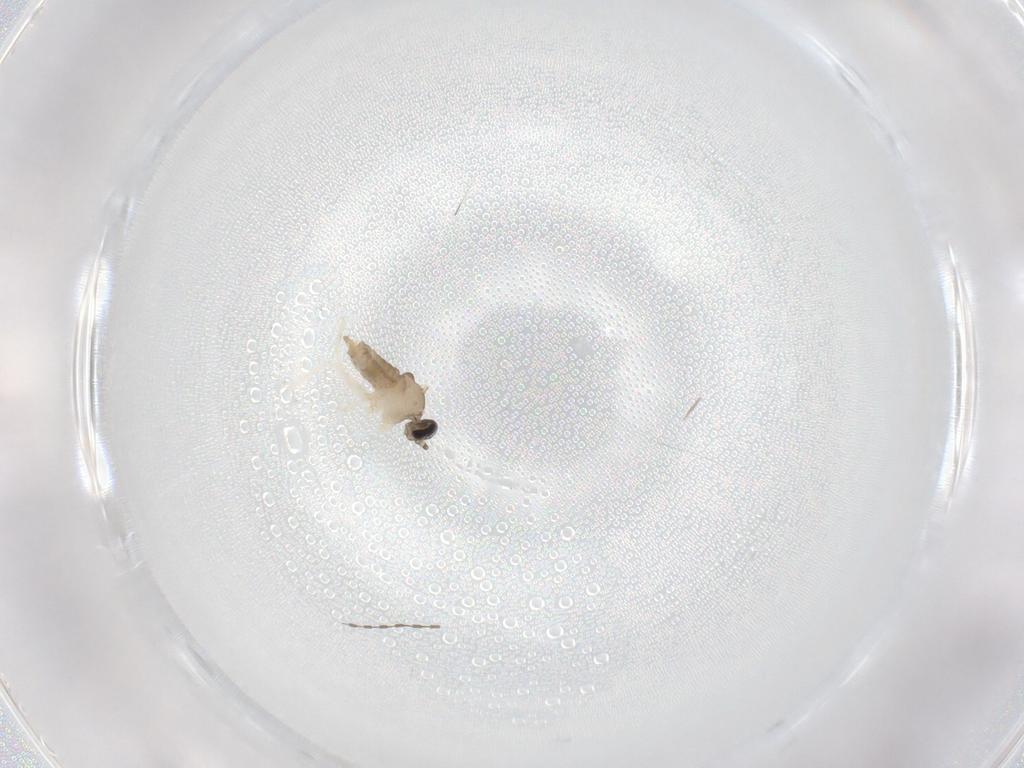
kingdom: Animalia
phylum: Arthropoda
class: Insecta
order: Diptera
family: Cecidomyiidae
